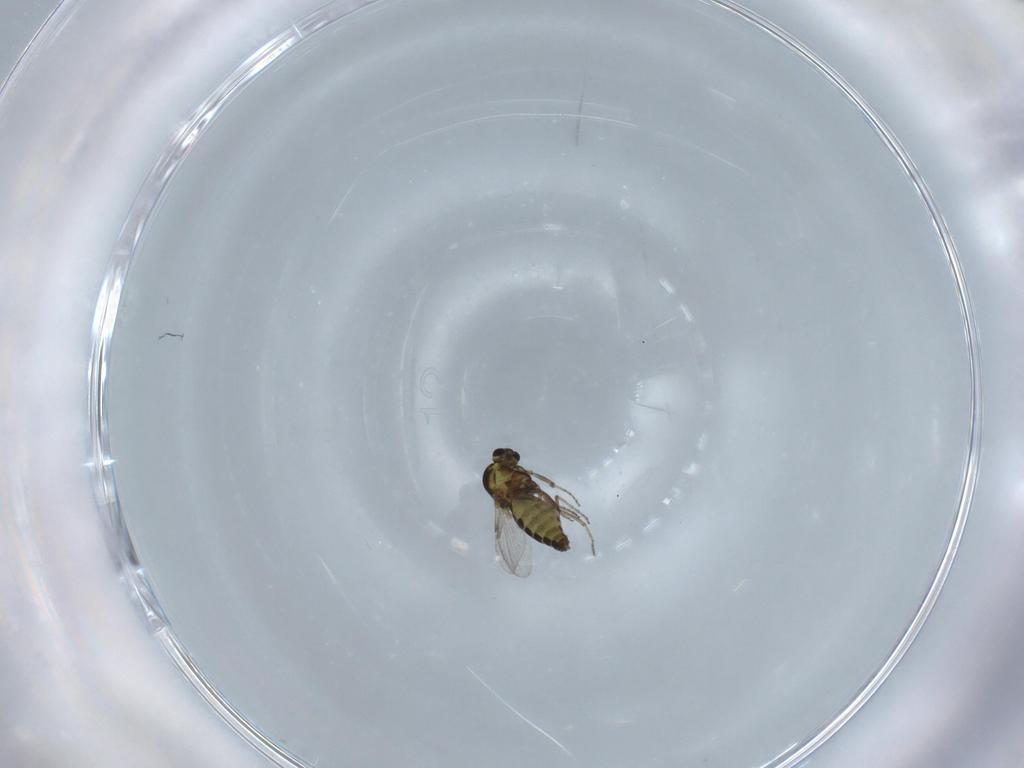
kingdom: Animalia
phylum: Arthropoda
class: Insecta
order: Diptera
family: Ceratopogonidae
